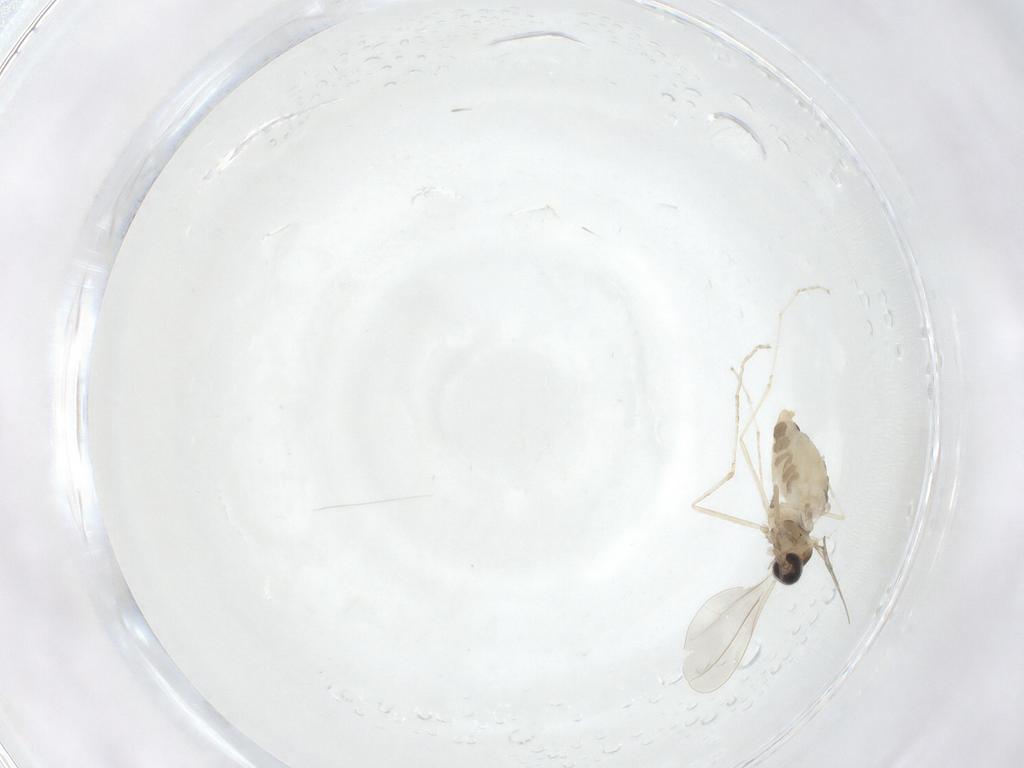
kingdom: Animalia
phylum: Arthropoda
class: Insecta
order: Diptera
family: Cecidomyiidae
